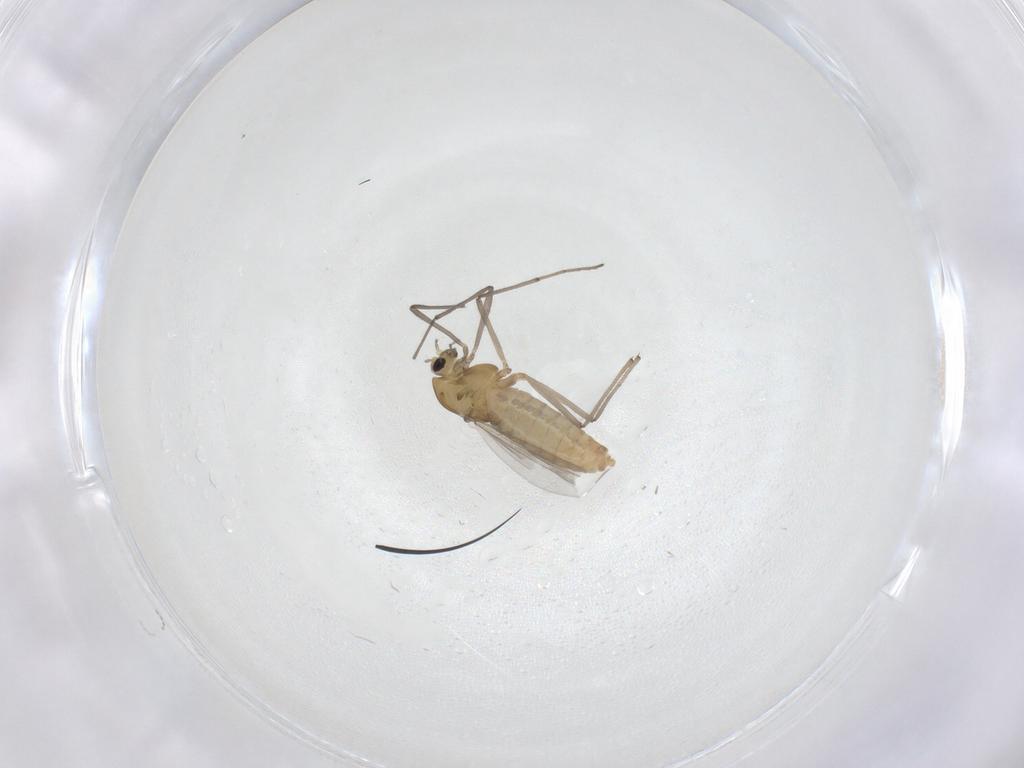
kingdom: Animalia
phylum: Arthropoda
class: Insecta
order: Diptera
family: Chironomidae
